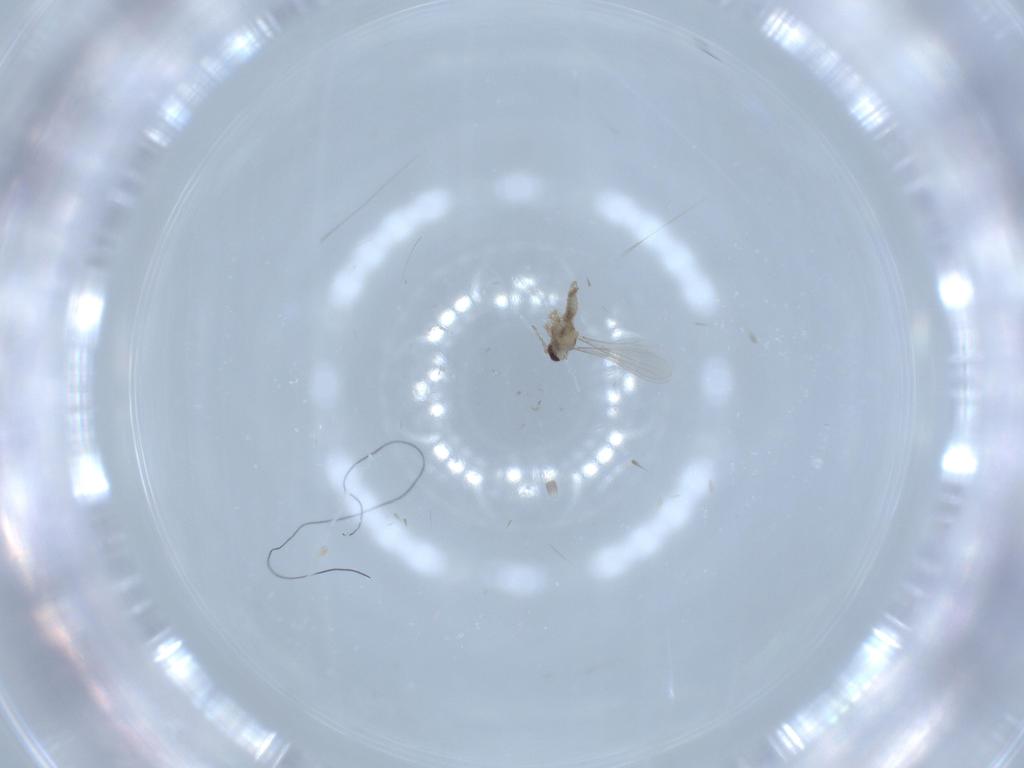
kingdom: Animalia
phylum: Arthropoda
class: Insecta
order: Diptera
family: Cecidomyiidae
